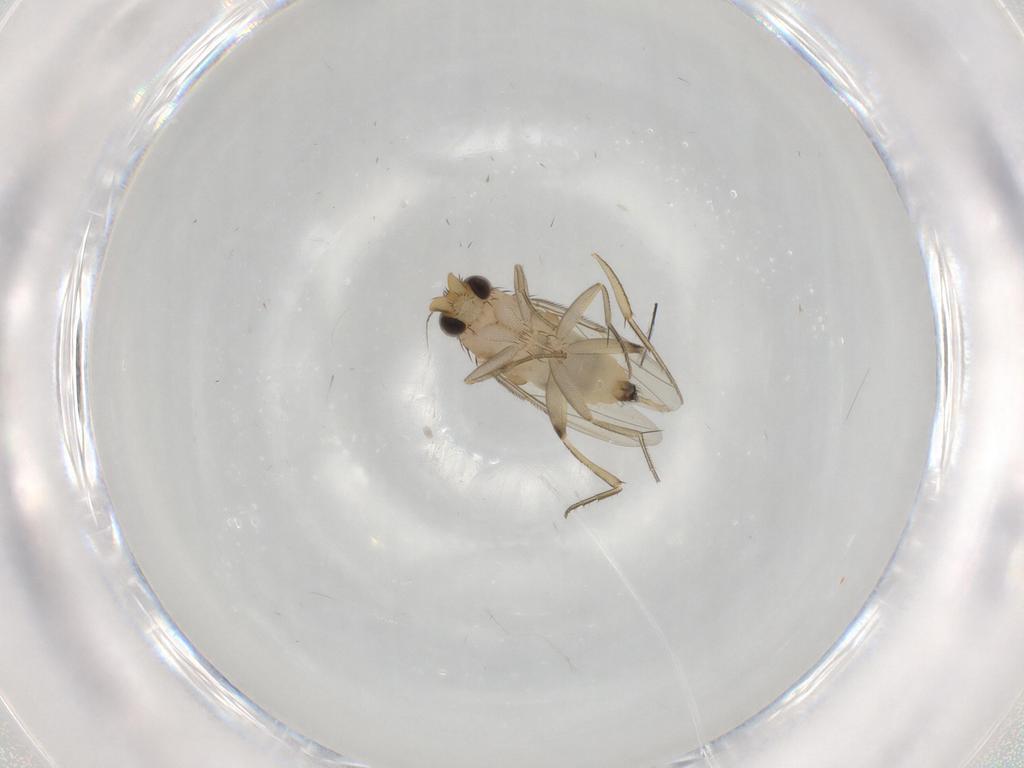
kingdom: Animalia
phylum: Arthropoda
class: Insecta
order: Diptera
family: Phoridae
